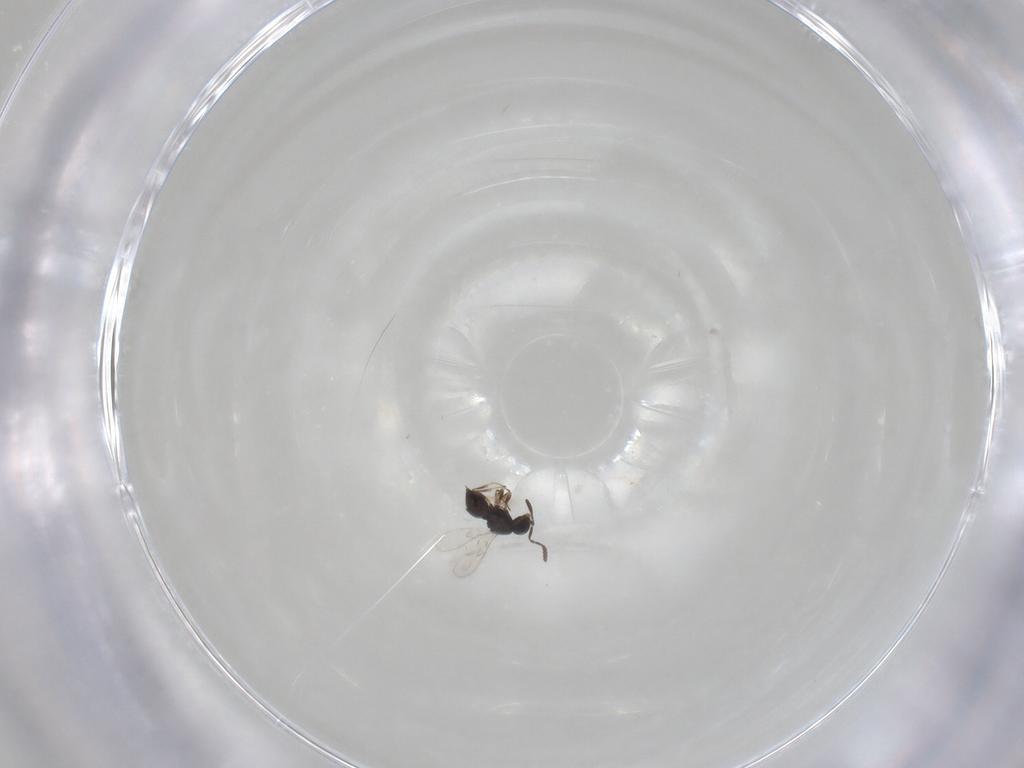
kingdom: Animalia
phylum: Arthropoda
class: Insecta
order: Hymenoptera
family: Scelionidae
